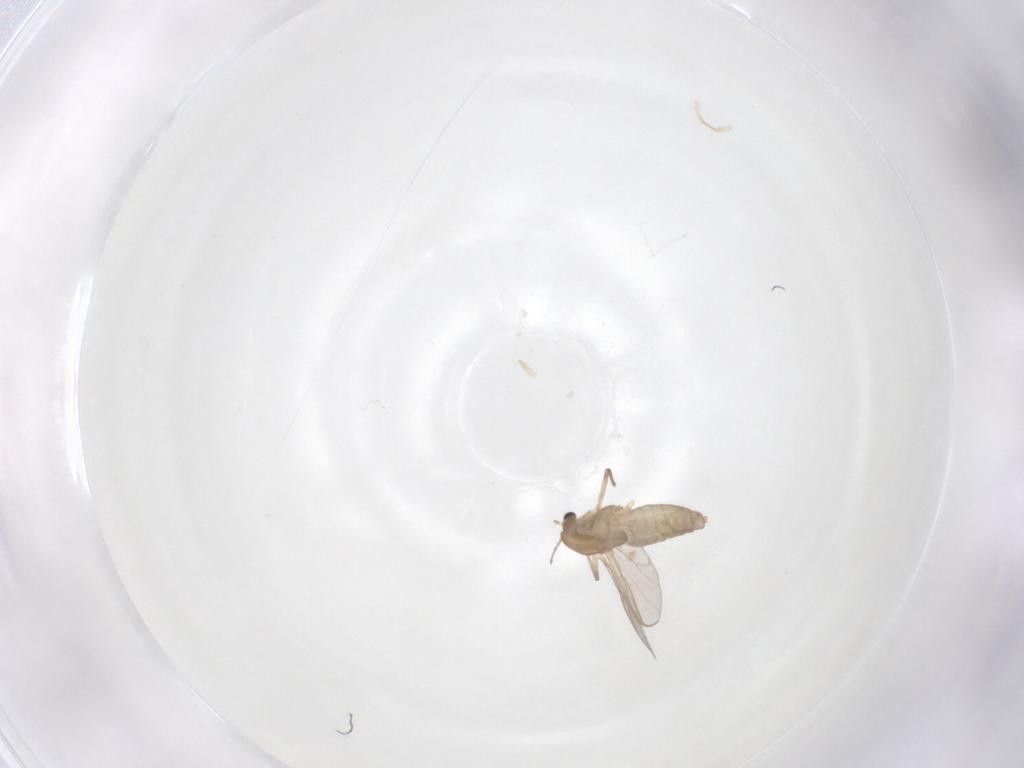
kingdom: Animalia
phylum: Arthropoda
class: Insecta
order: Diptera
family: Chironomidae
